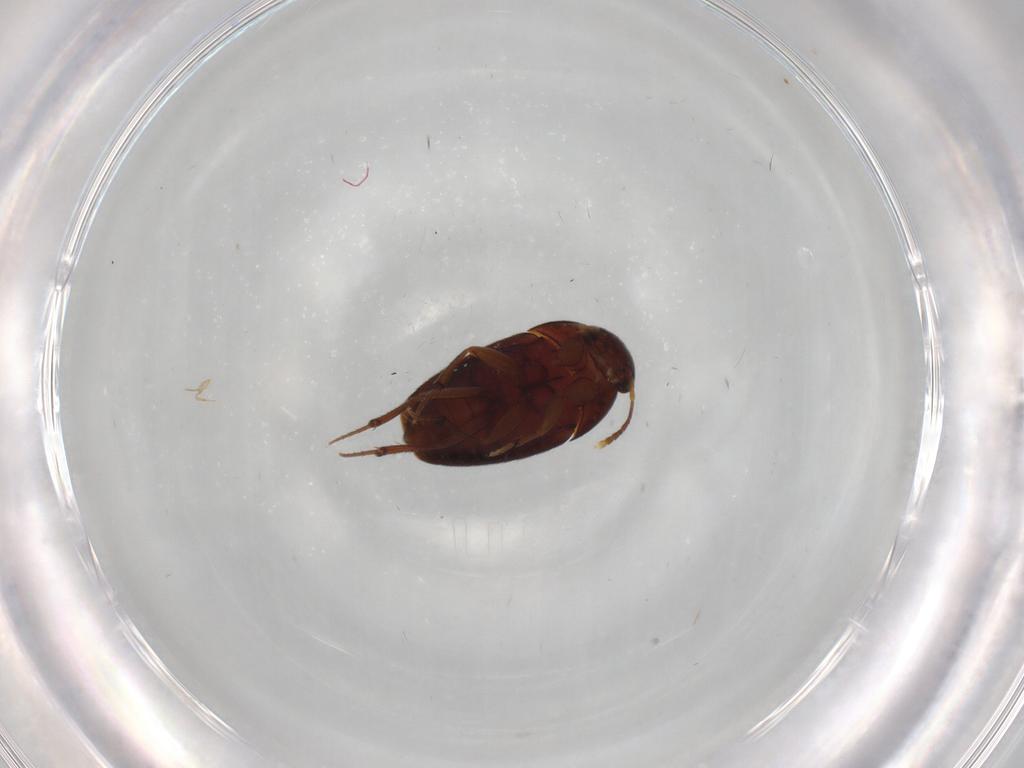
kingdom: Animalia
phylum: Arthropoda
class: Insecta
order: Coleoptera
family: Leiodidae
